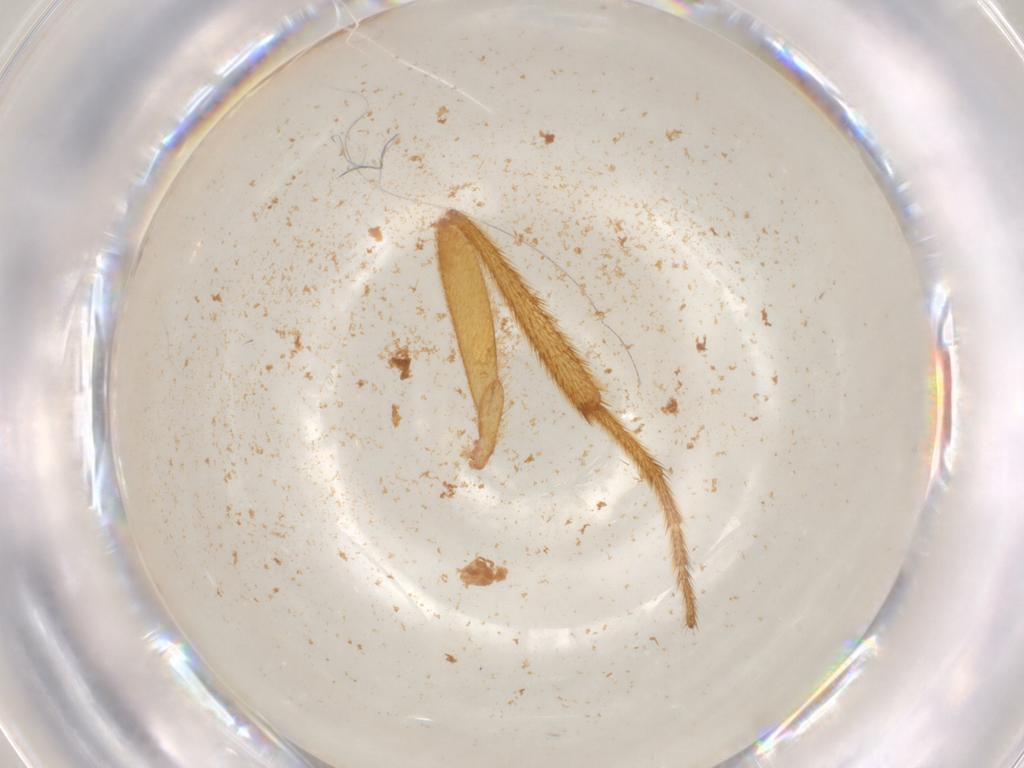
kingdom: Animalia
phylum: Arthropoda
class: Insecta
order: Coleoptera
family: Phengodidae
